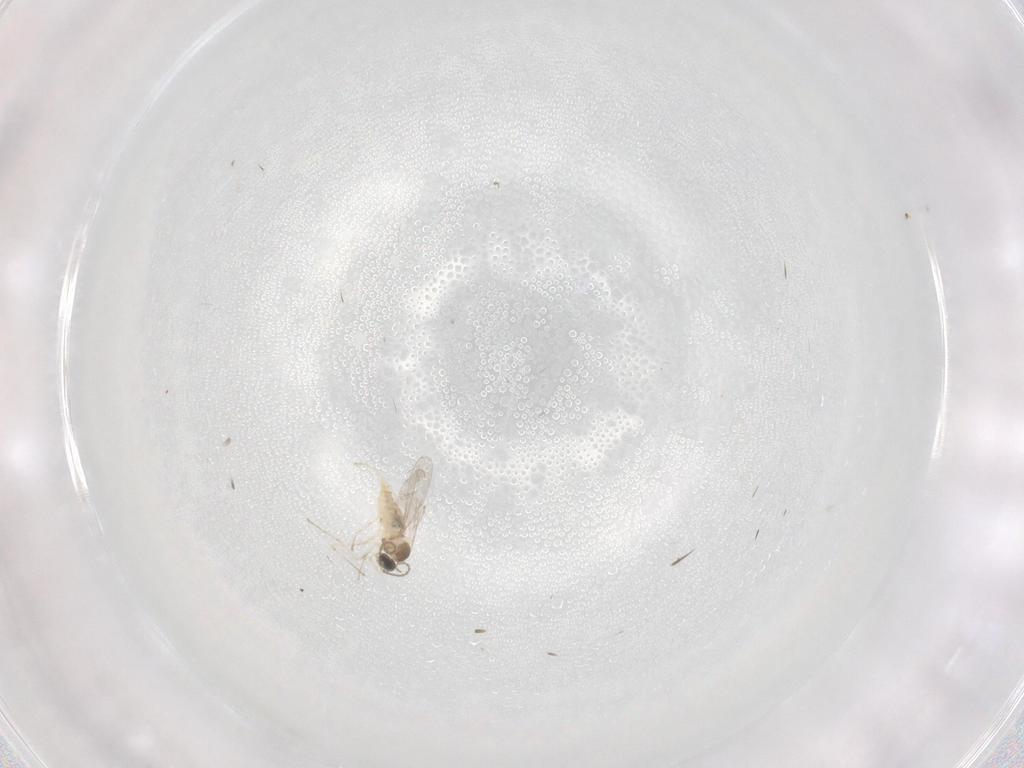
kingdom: Animalia
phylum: Arthropoda
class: Insecta
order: Diptera
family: Cecidomyiidae
